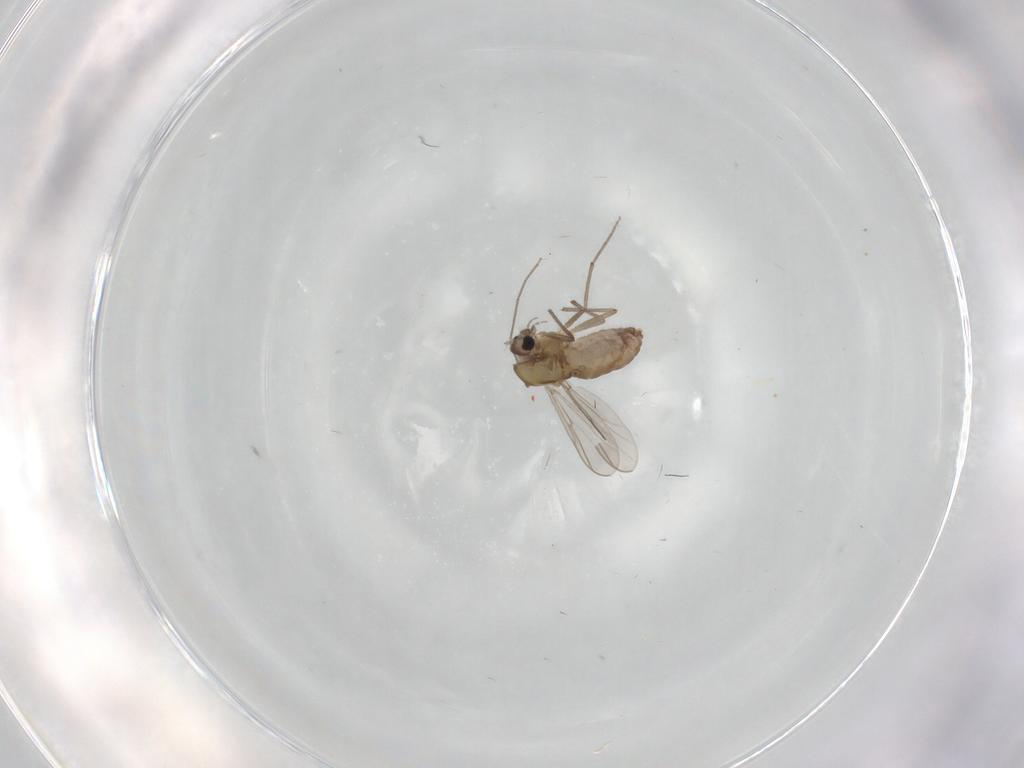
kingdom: Animalia
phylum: Arthropoda
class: Insecta
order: Diptera
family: Chironomidae
